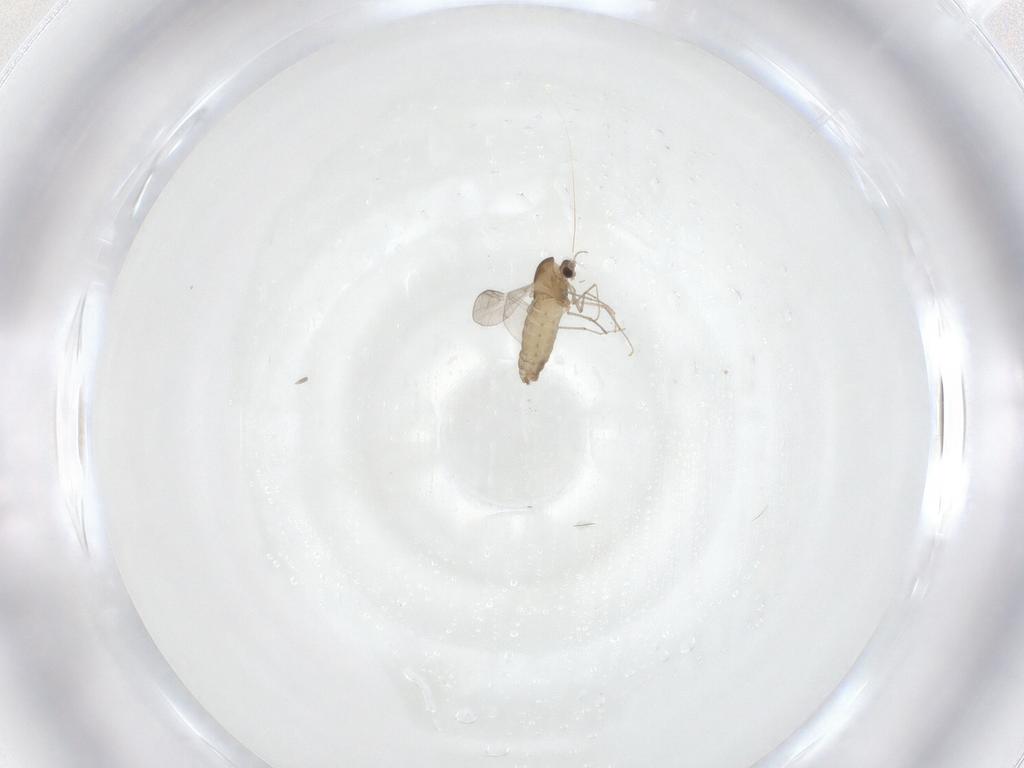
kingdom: Animalia
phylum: Arthropoda
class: Insecta
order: Diptera
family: Chironomidae
